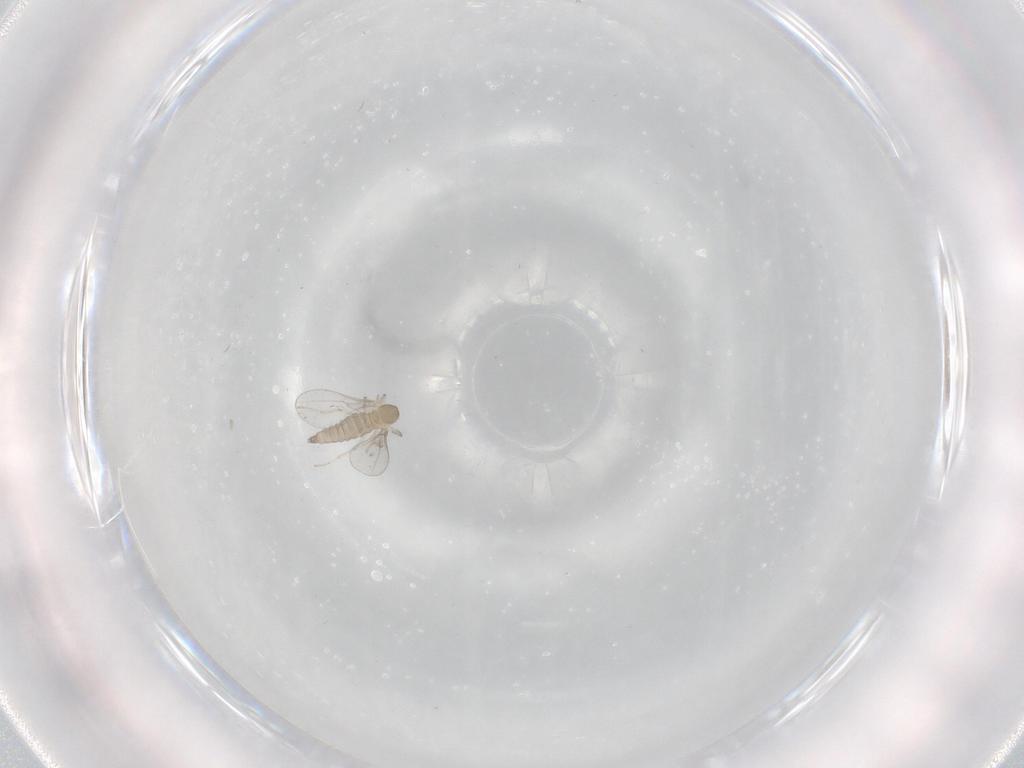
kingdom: Animalia
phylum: Arthropoda
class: Insecta
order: Diptera
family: Cecidomyiidae
